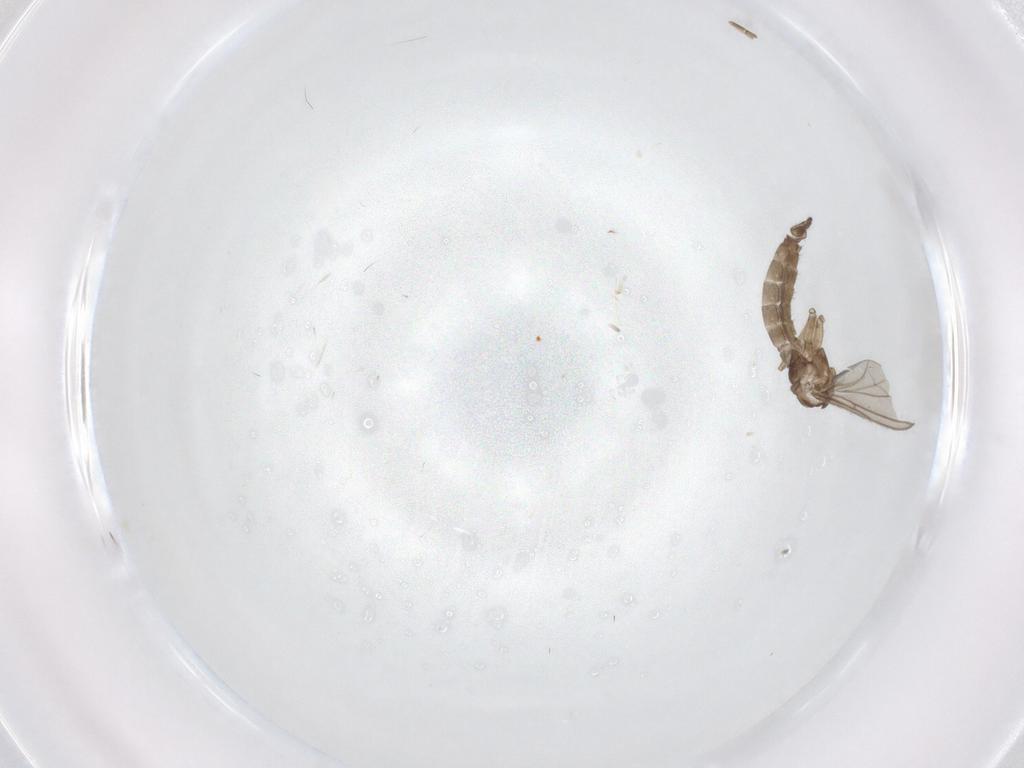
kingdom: Animalia
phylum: Arthropoda
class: Insecta
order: Diptera
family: Sciaridae
